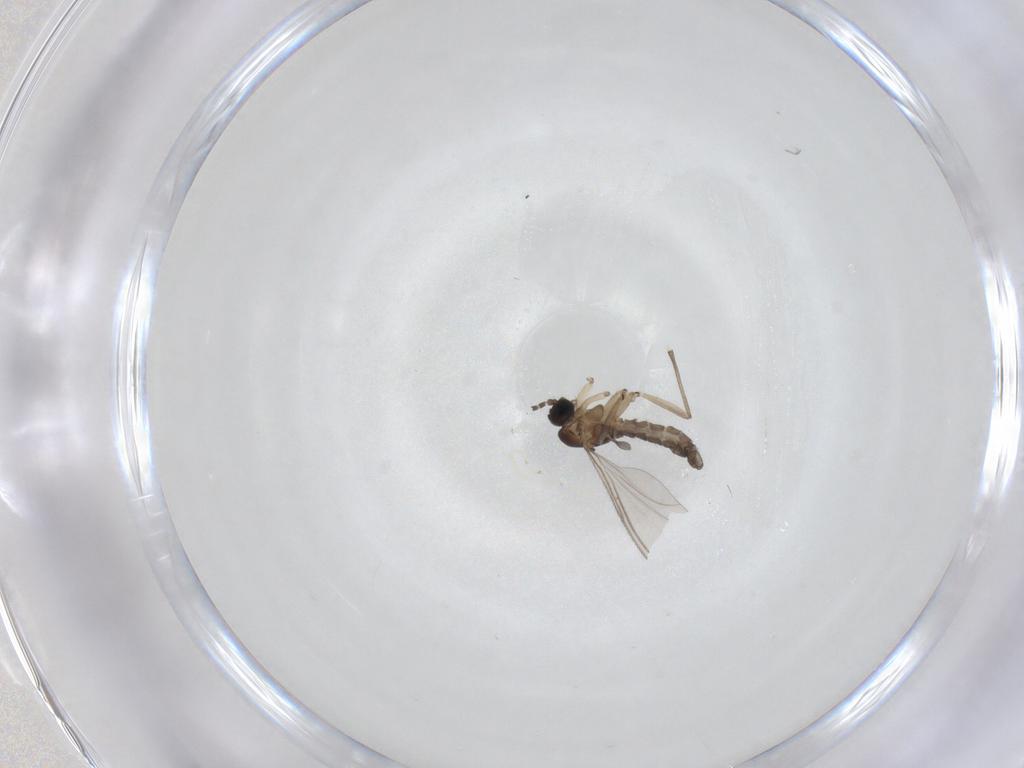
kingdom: Animalia
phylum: Arthropoda
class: Insecta
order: Diptera
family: Sciaridae
